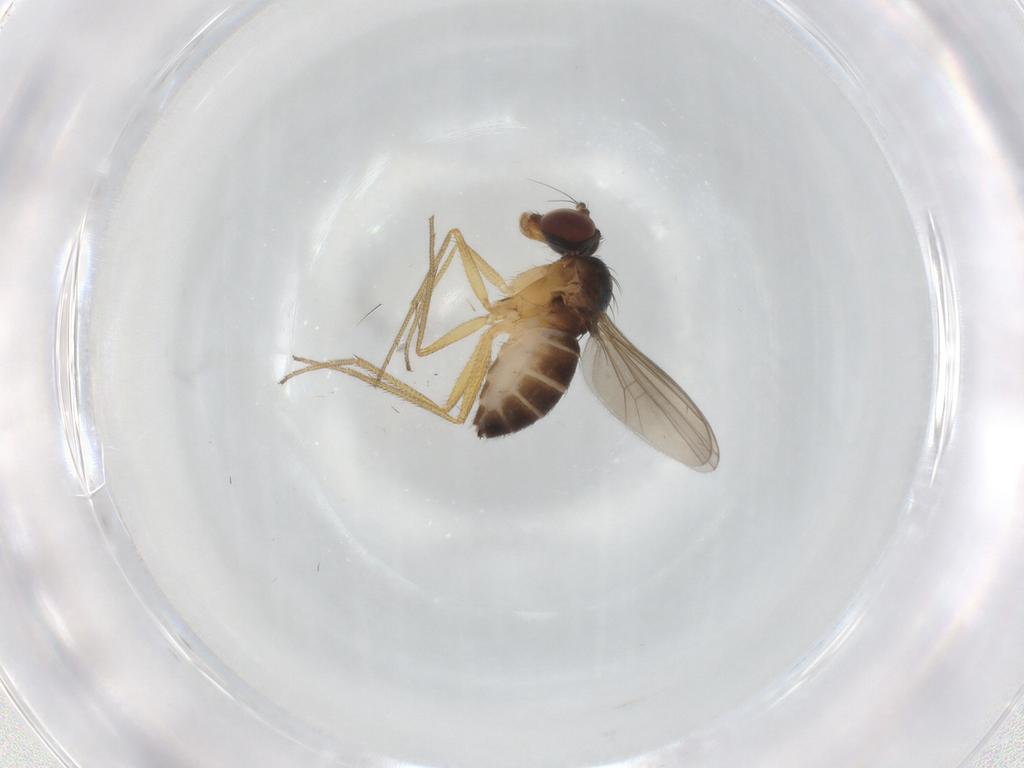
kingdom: Animalia
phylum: Arthropoda
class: Insecta
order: Diptera
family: Dolichopodidae
